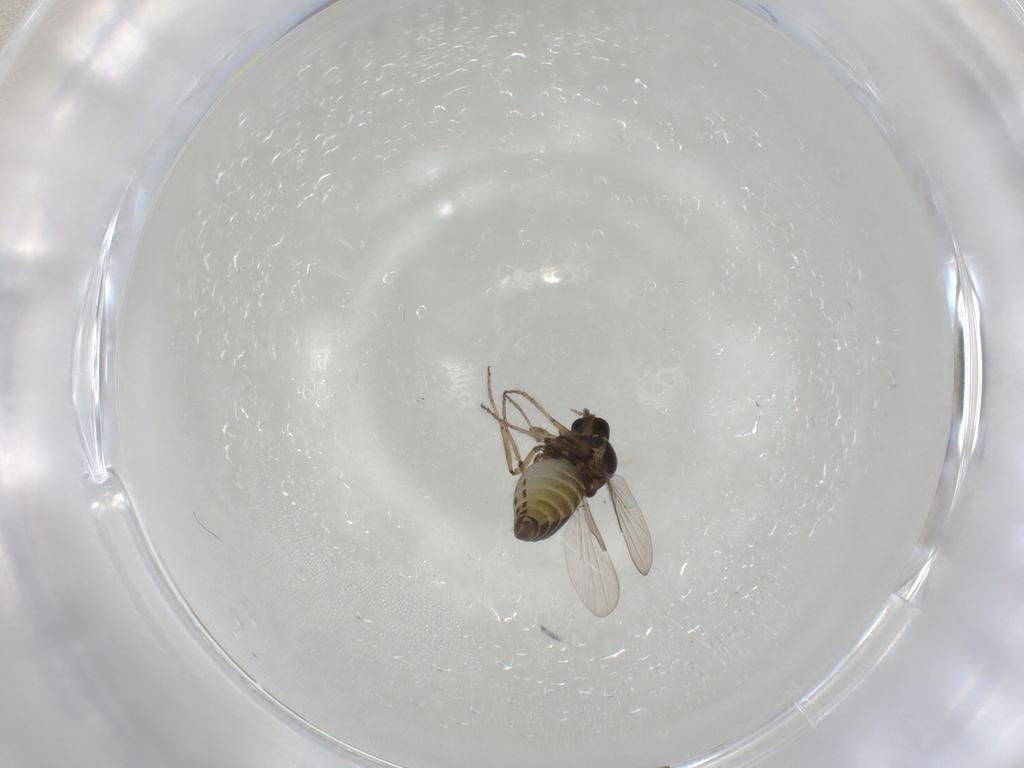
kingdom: Animalia
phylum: Arthropoda
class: Insecta
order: Diptera
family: Ceratopogonidae
